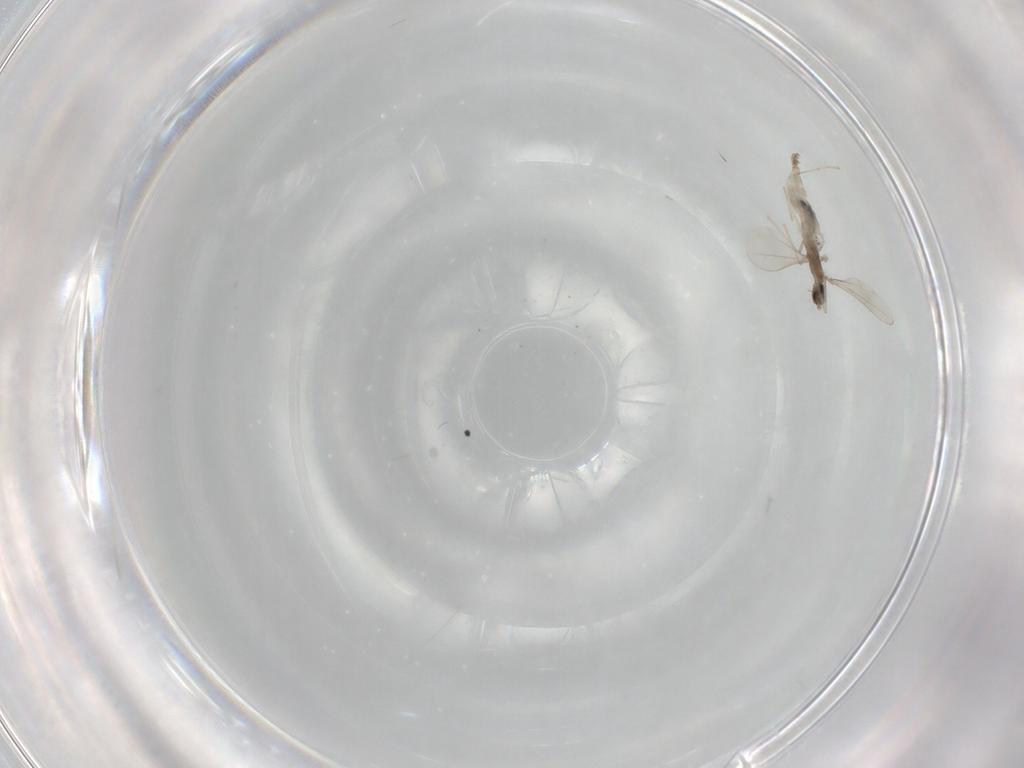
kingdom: Animalia
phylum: Arthropoda
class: Insecta
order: Diptera
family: Cecidomyiidae
